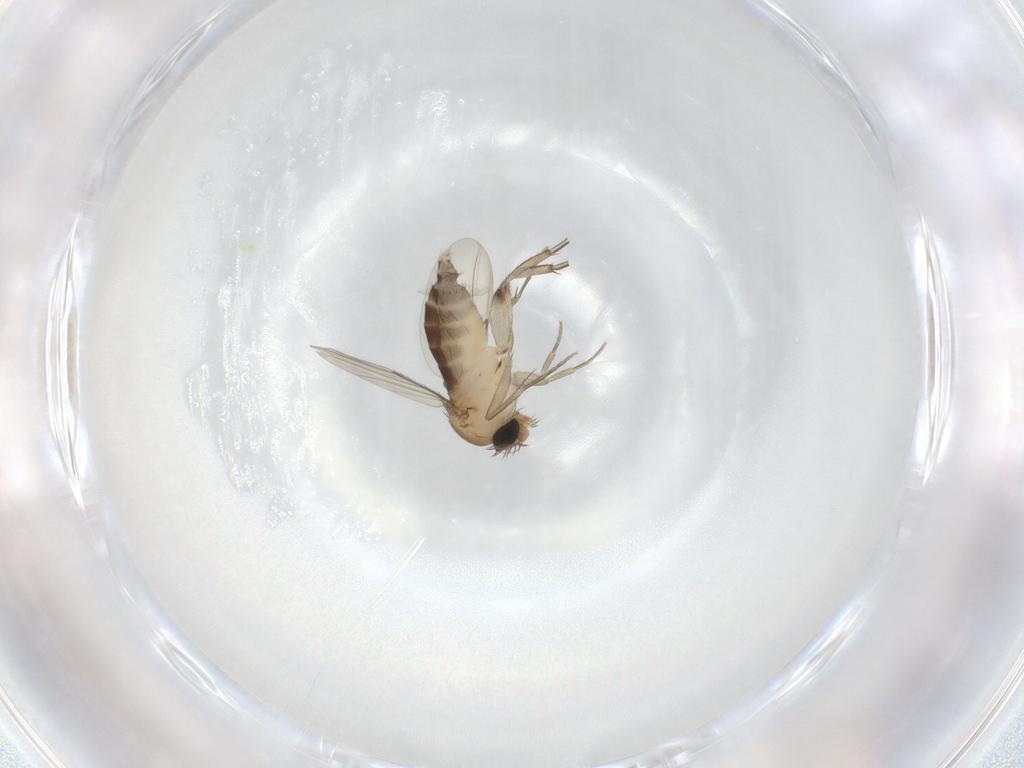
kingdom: Animalia
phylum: Arthropoda
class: Insecta
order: Diptera
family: Phoridae
